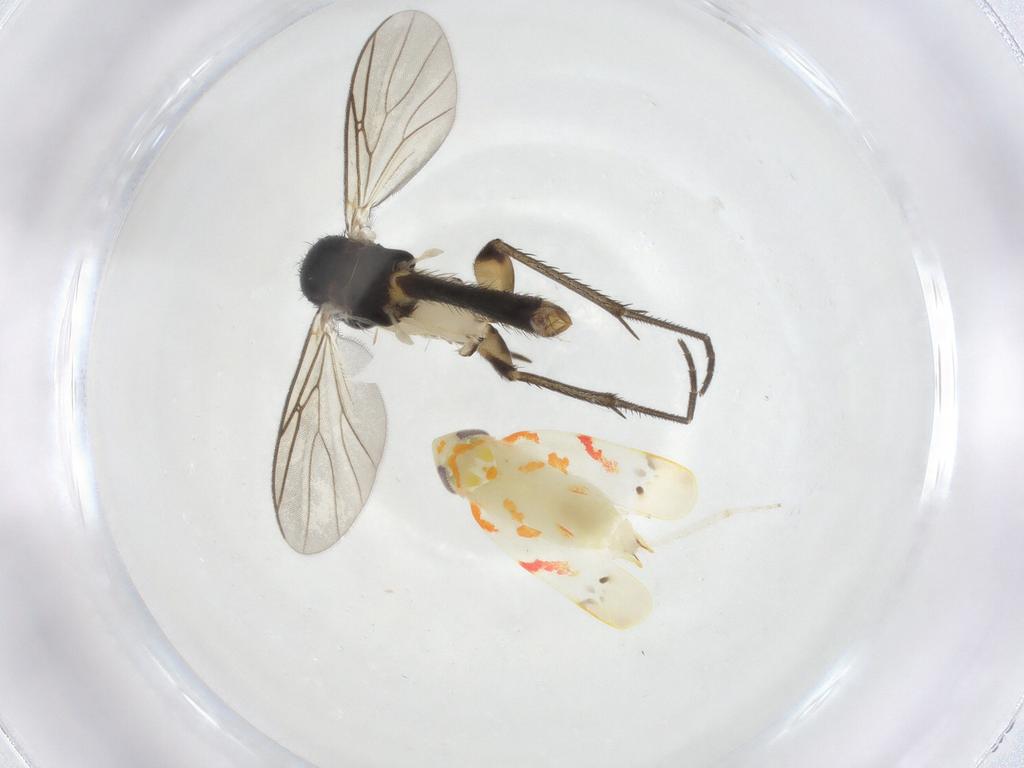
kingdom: Animalia
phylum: Arthropoda
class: Insecta
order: Diptera
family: Mycetophilidae
